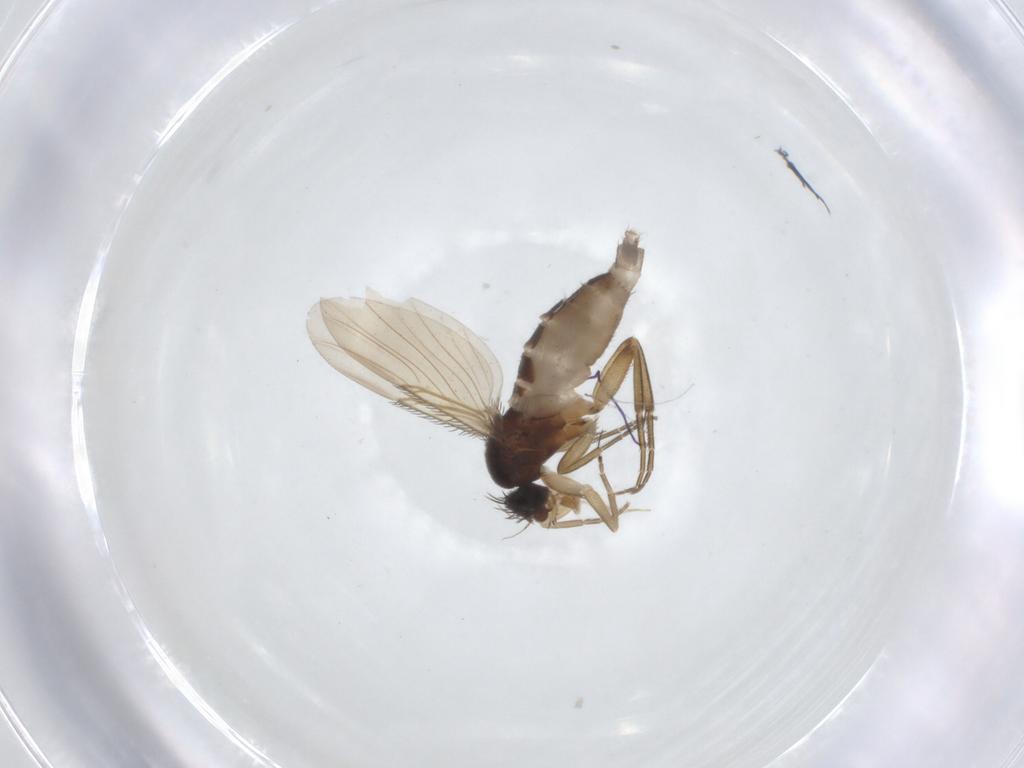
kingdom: Animalia
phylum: Arthropoda
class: Insecta
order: Diptera
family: Phoridae
